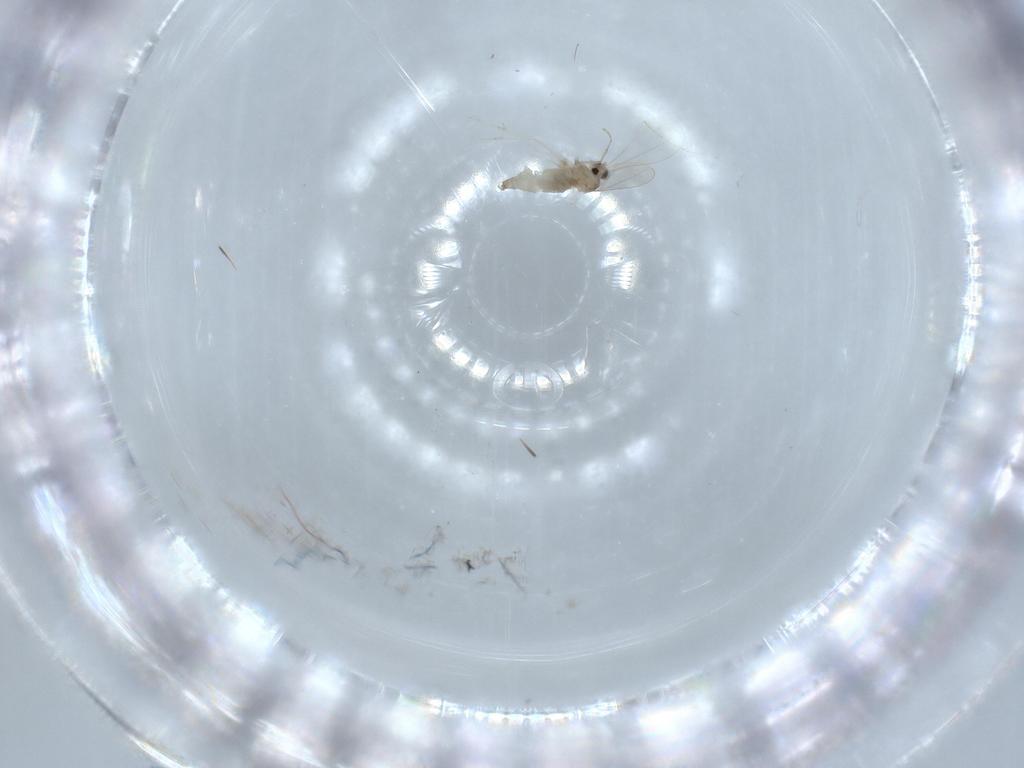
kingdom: Animalia
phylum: Arthropoda
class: Insecta
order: Diptera
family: Cecidomyiidae
